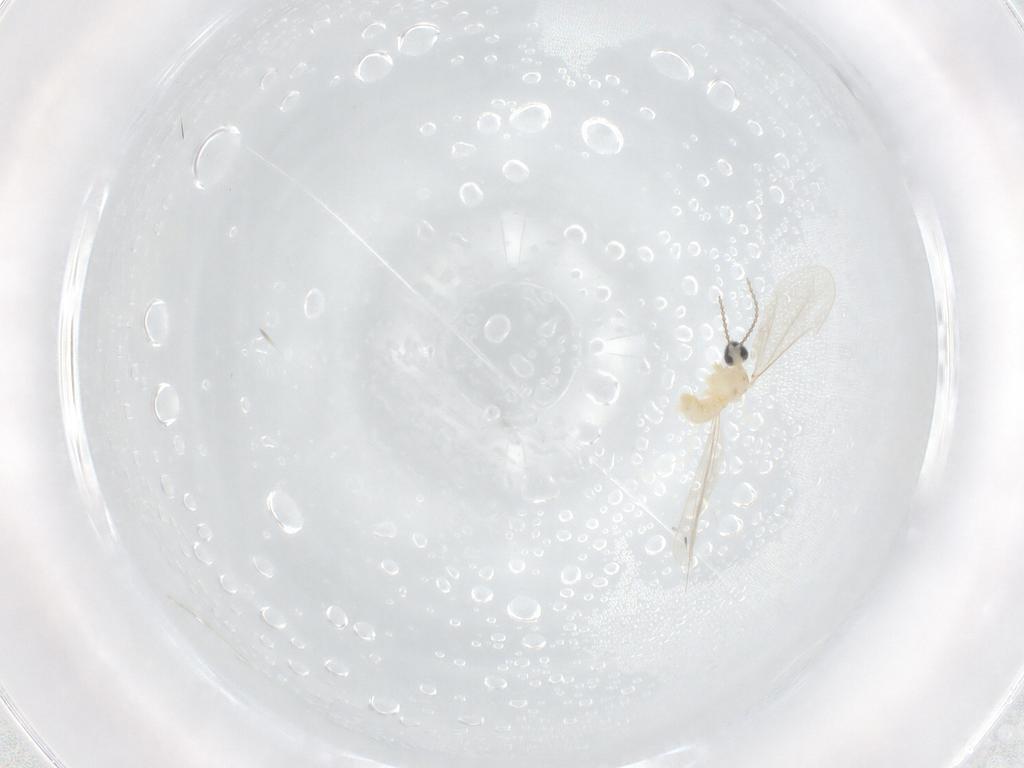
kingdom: Animalia
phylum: Arthropoda
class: Insecta
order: Diptera
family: Cecidomyiidae
